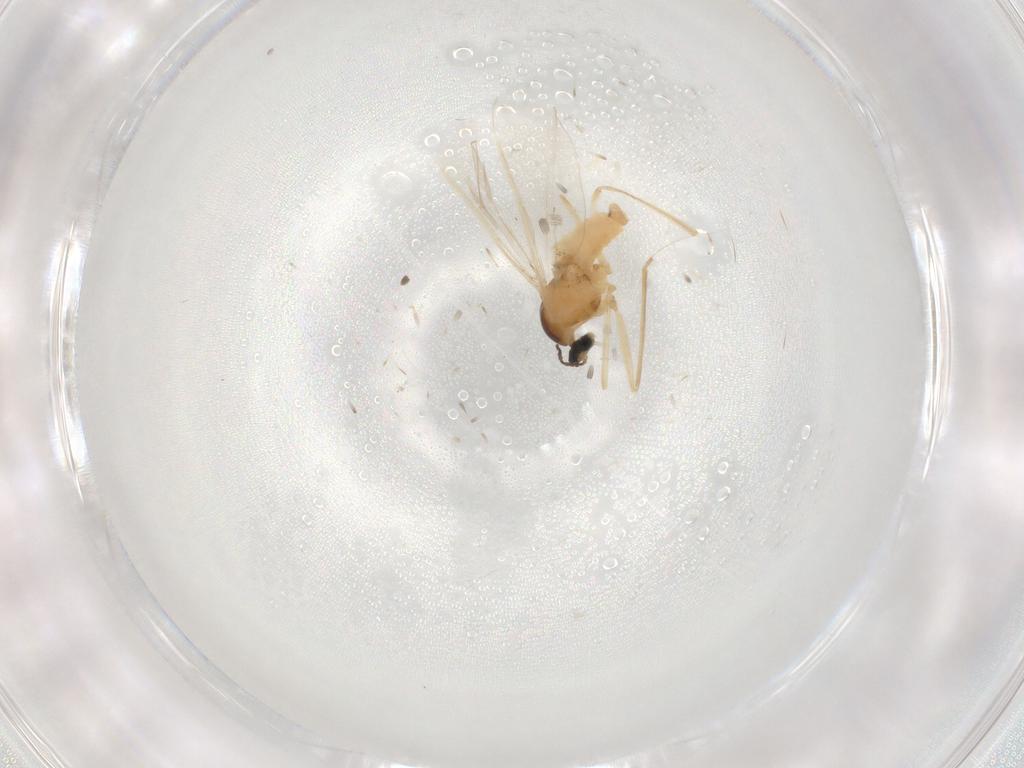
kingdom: Animalia
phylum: Arthropoda
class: Insecta
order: Diptera
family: Cecidomyiidae
